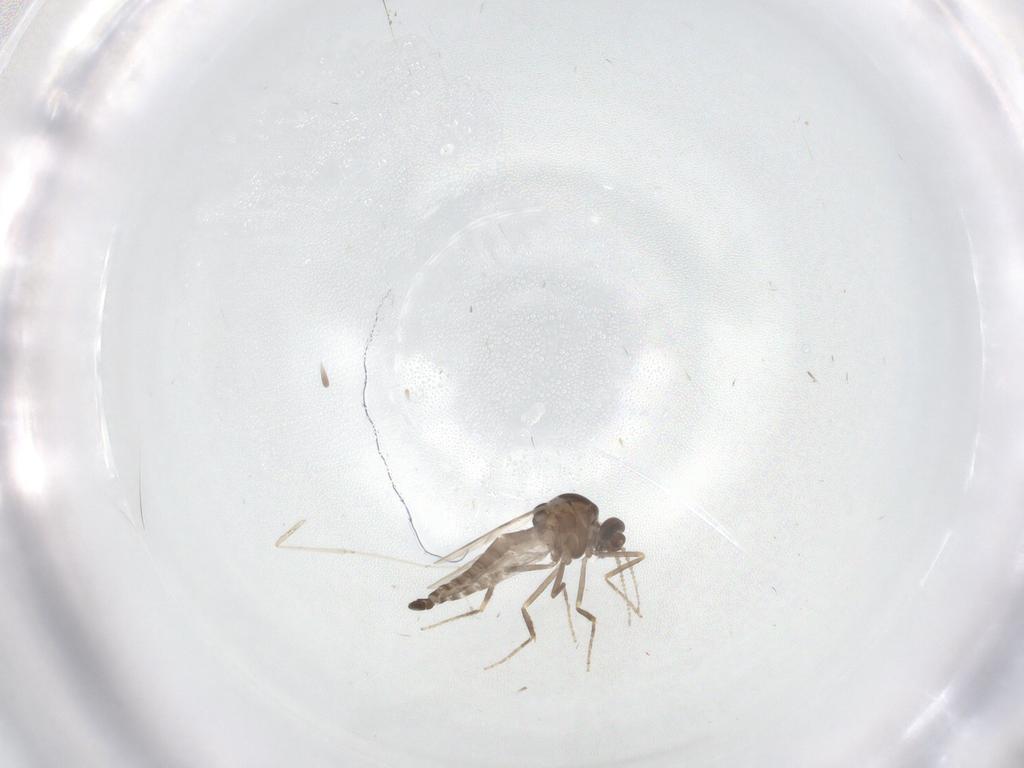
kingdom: Animalia
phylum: Arthropoda
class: Insecta
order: Diptera
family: Ceratopogonidae
